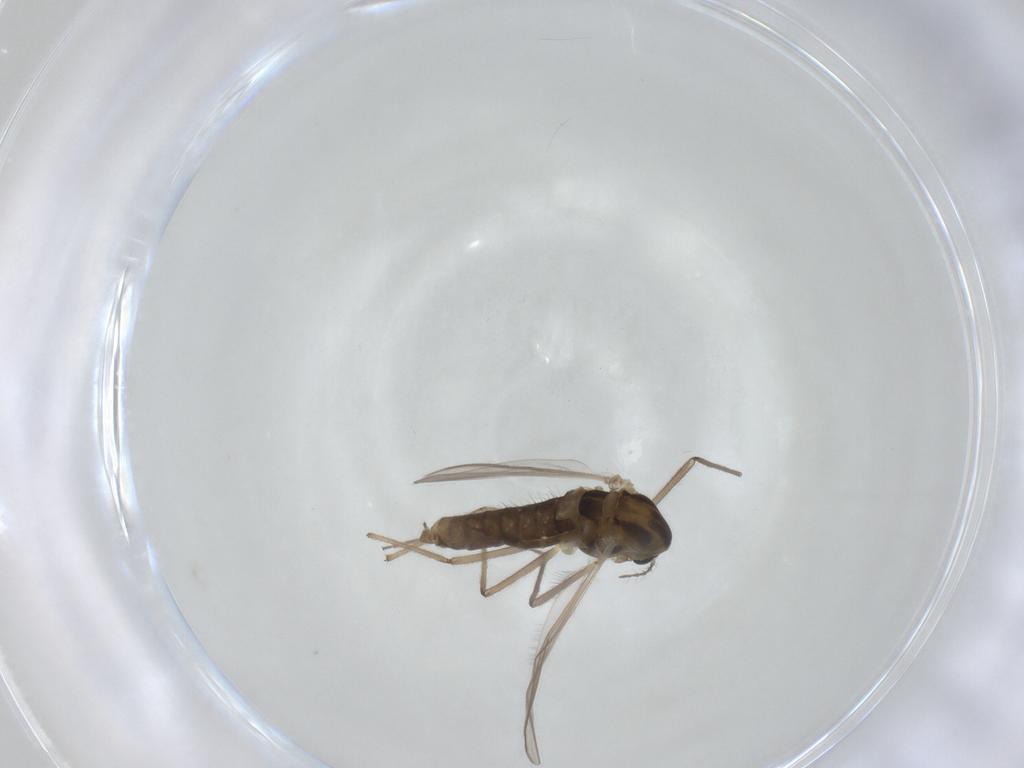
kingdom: Animalia
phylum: Arthropoda
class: Insecta
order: Diptera
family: Chironomidae
